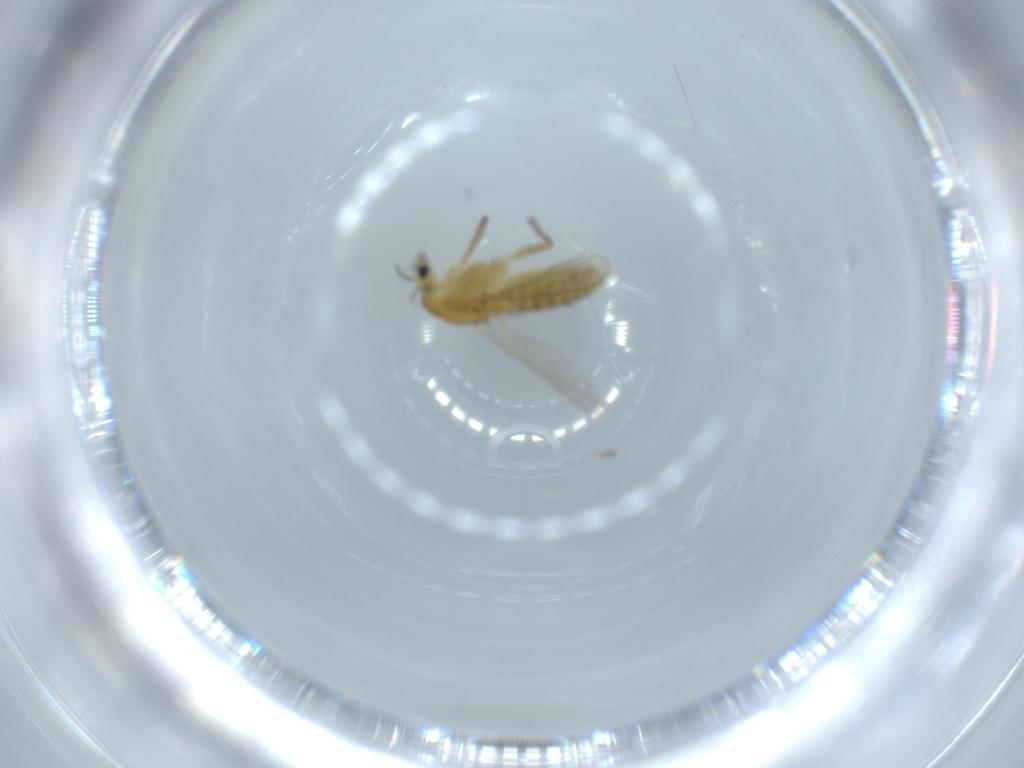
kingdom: Animalia
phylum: Arthropoda
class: Insecta
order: Diptera
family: Chironomidae
